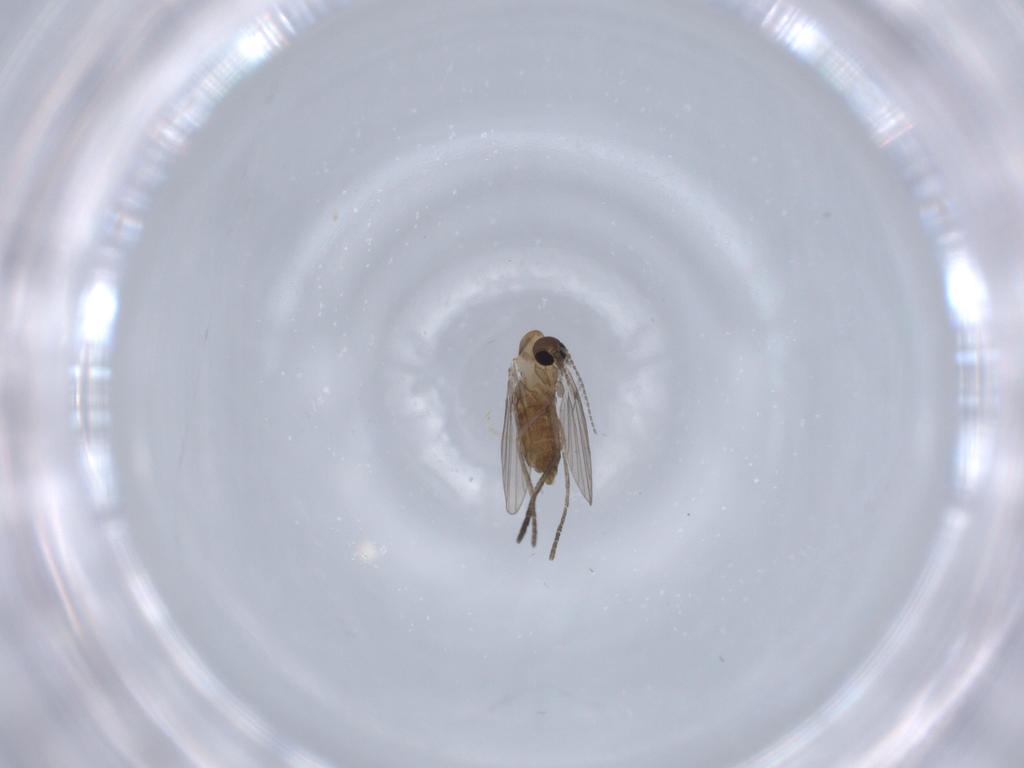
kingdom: Animalia
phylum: Arthropoda
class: Insecta
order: Diptera
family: Psychodidae
